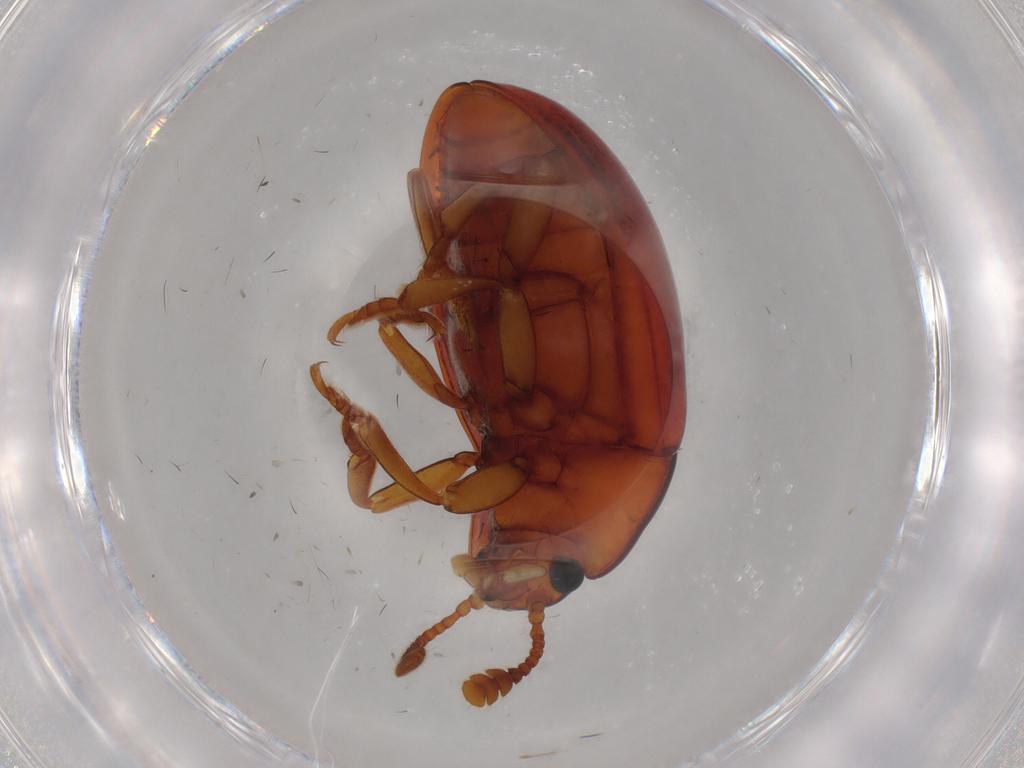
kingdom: Animalia
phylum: Arthropoda
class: Insecta
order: Coleoptera
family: Erotylidae
